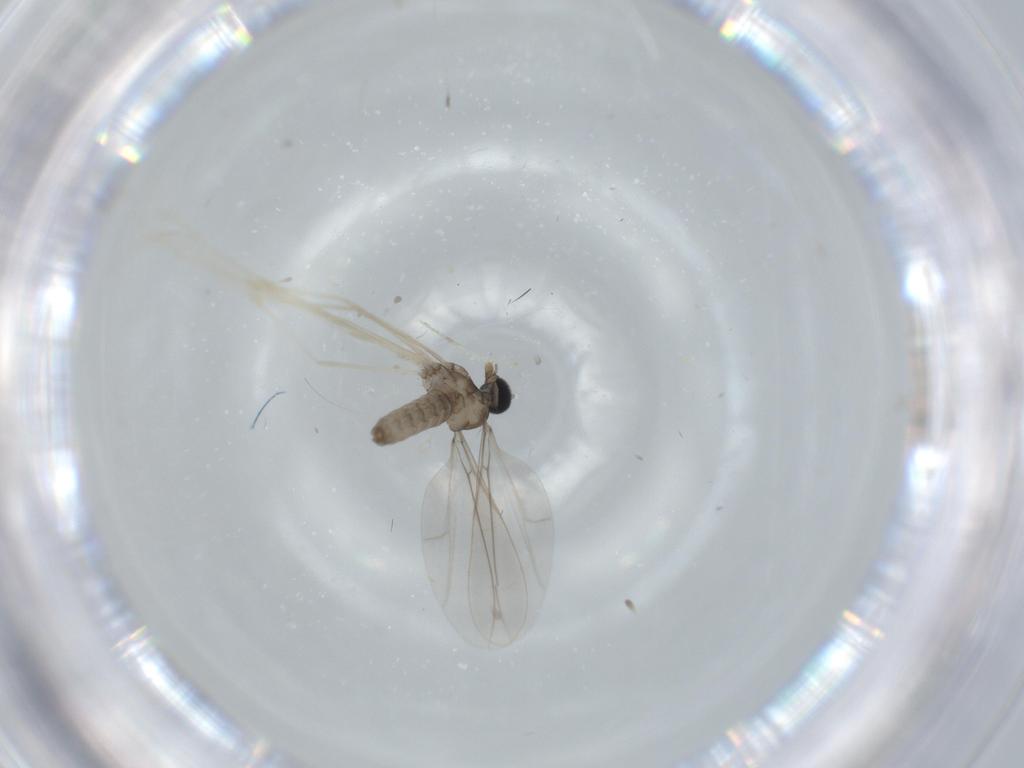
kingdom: Animalia
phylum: Arthropoda
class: Insecta
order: Diptera
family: Cecidomyiidae
